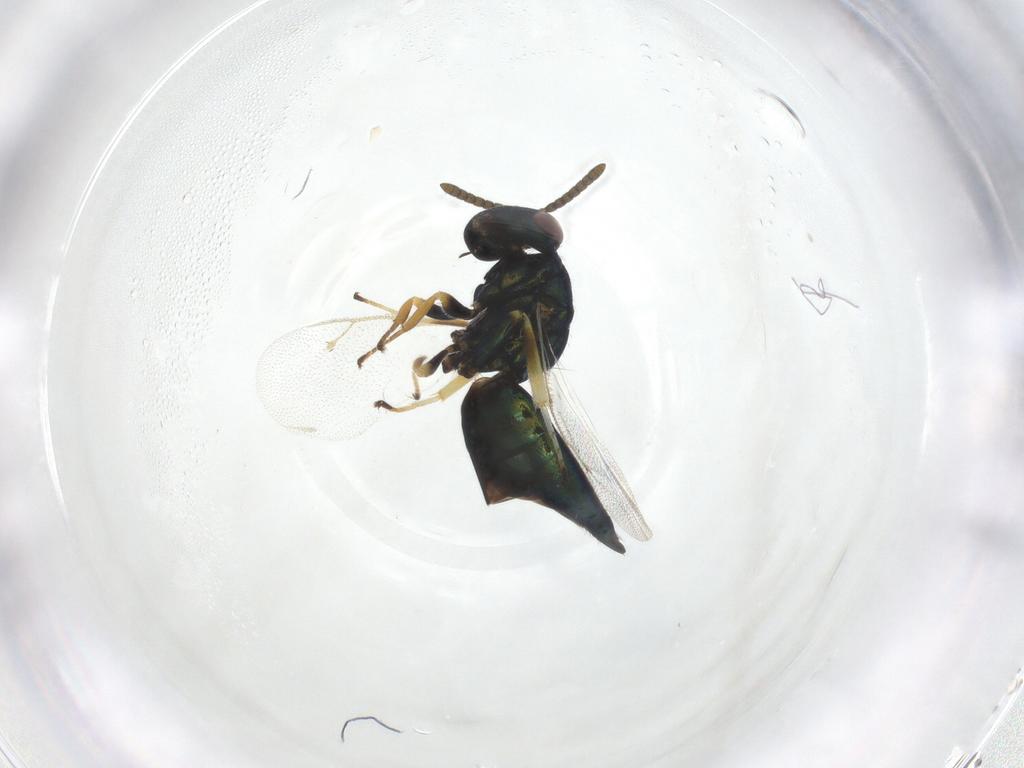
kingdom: Animalia
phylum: Arthropoda
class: Insecta
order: Hymenoptera
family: Pteromalidae
